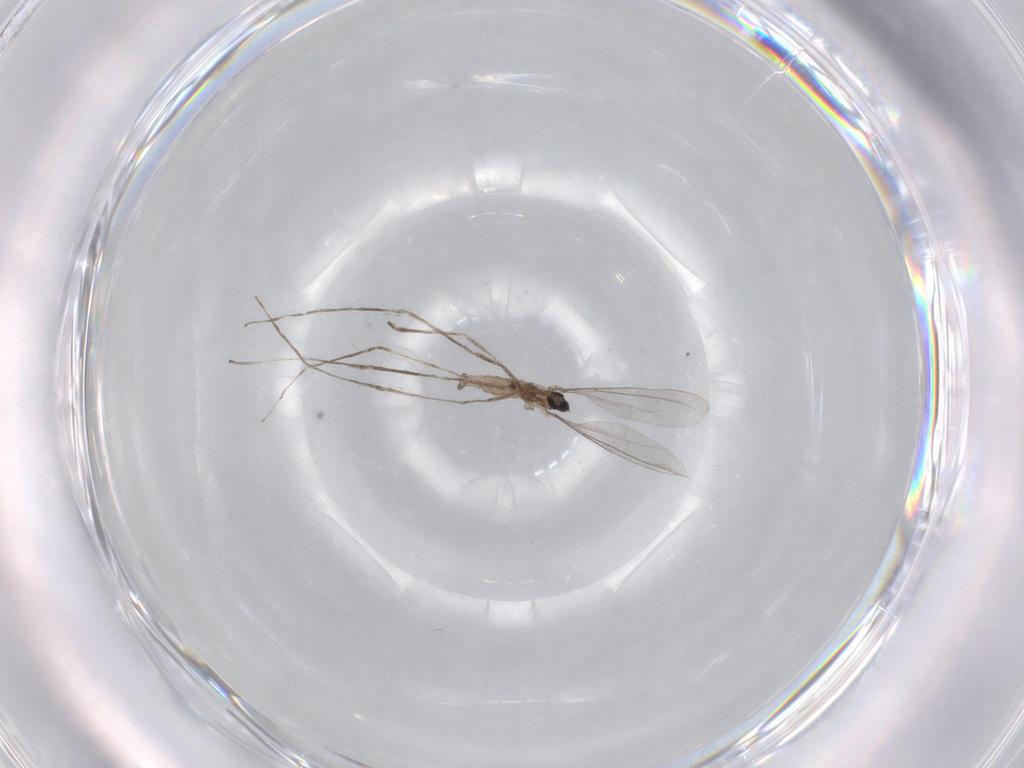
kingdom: Animalia
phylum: Arthropoda
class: Insecta
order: Diptera
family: Cecidomyiidae
